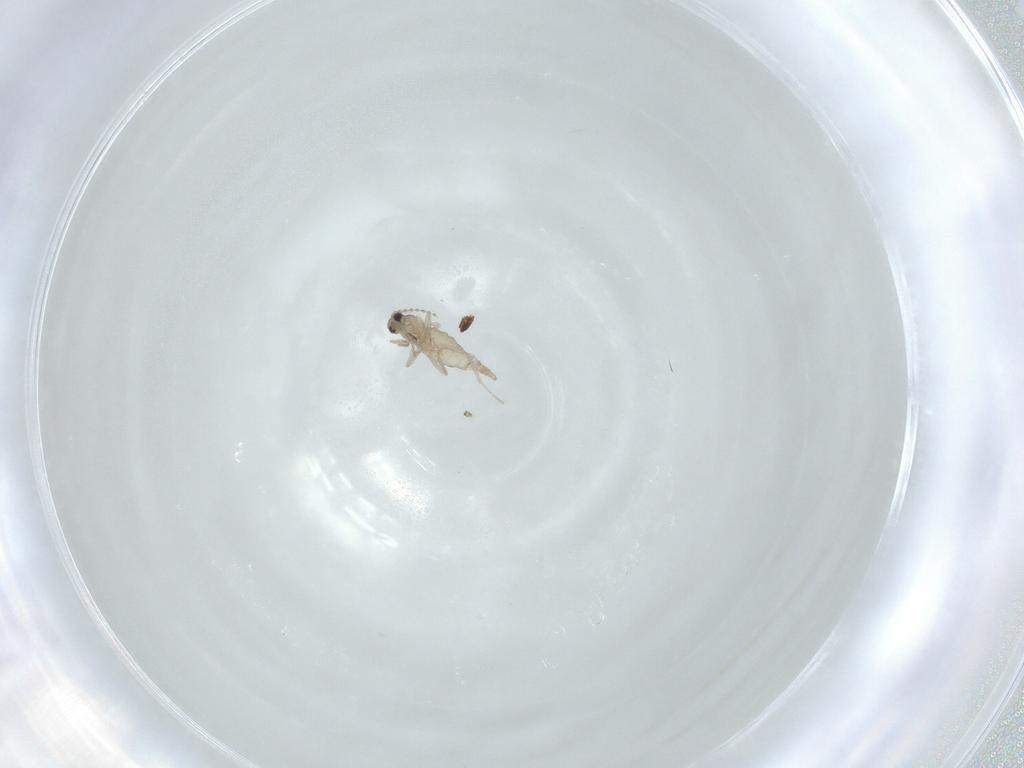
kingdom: Animalia
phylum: Arthropoda
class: Insecta
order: Diptera
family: Cecidomyiidae
